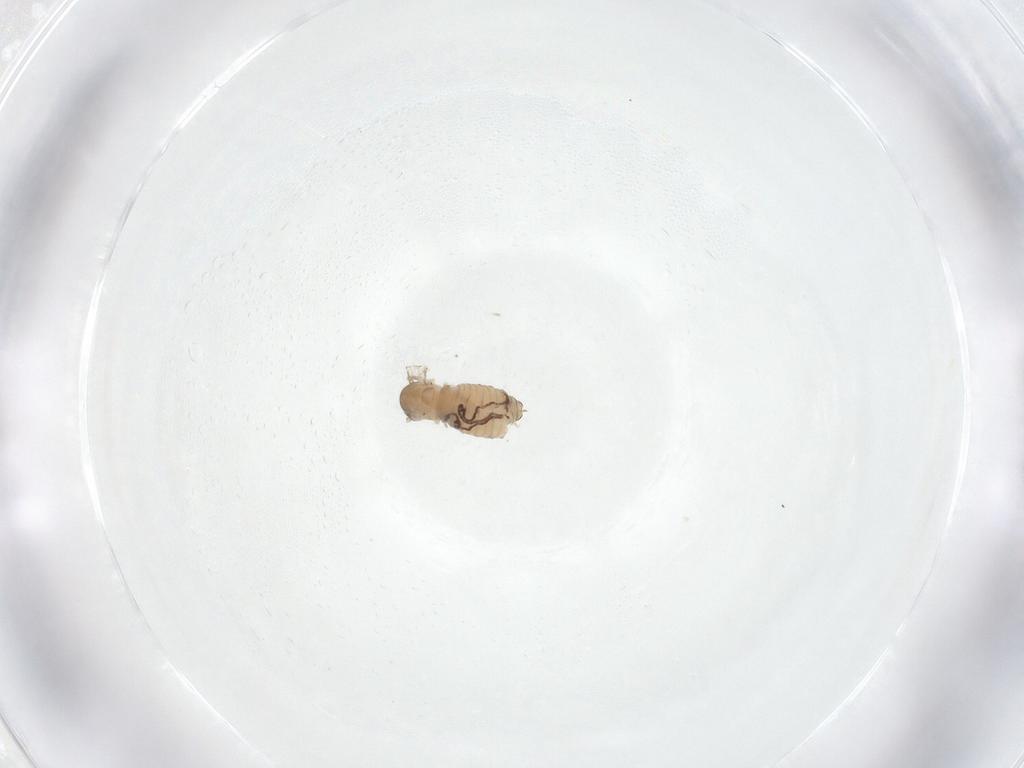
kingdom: Animalia
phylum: Arthropoda
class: Insecta
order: Diptera
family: Psychodidae
